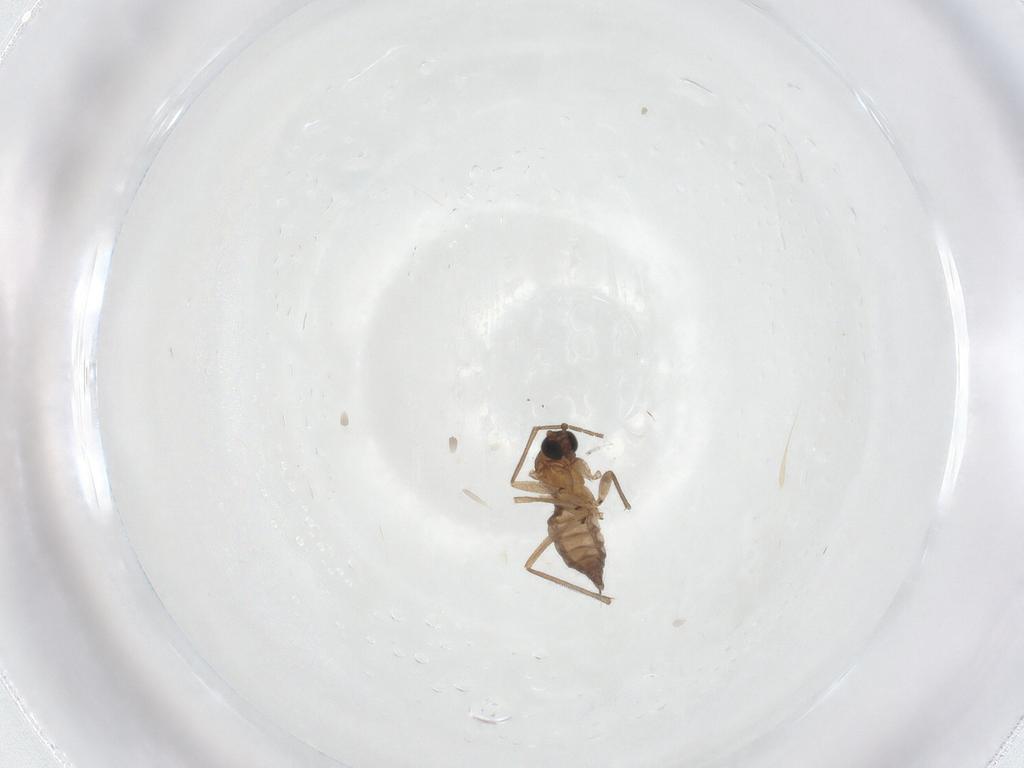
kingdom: Animalia
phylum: Arthropoda
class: Insecta
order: Diptera
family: Sciaridae
